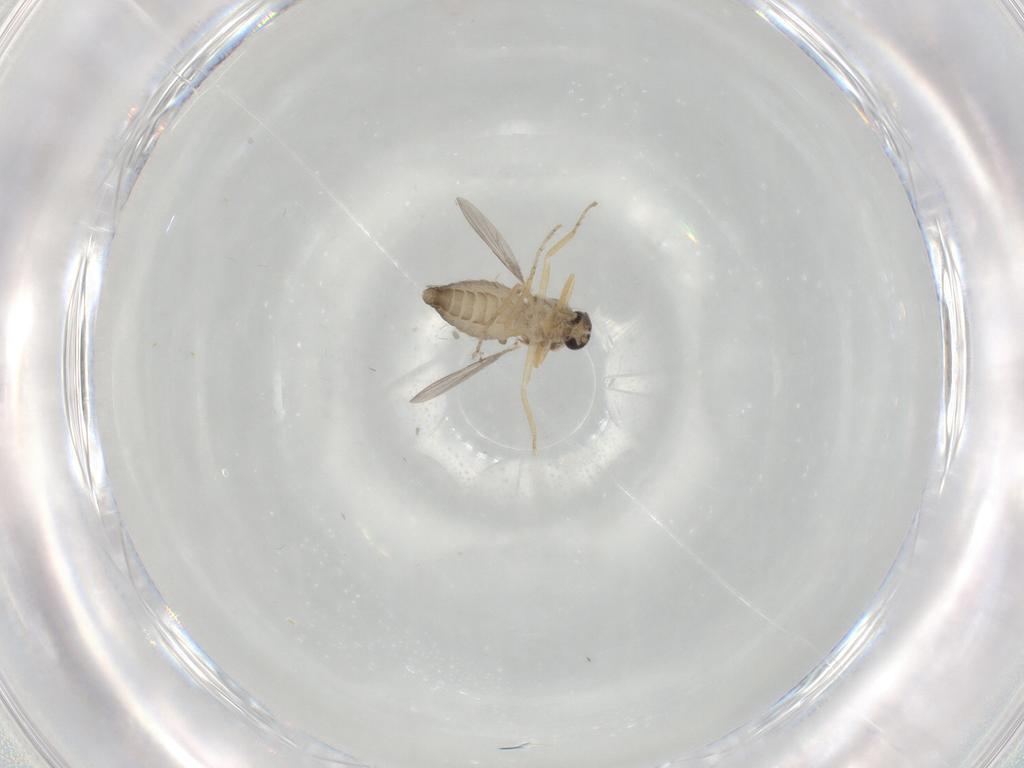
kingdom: Animalia
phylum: Arthropoda
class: Insecta
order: Diptera
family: Ceratopogonidae
